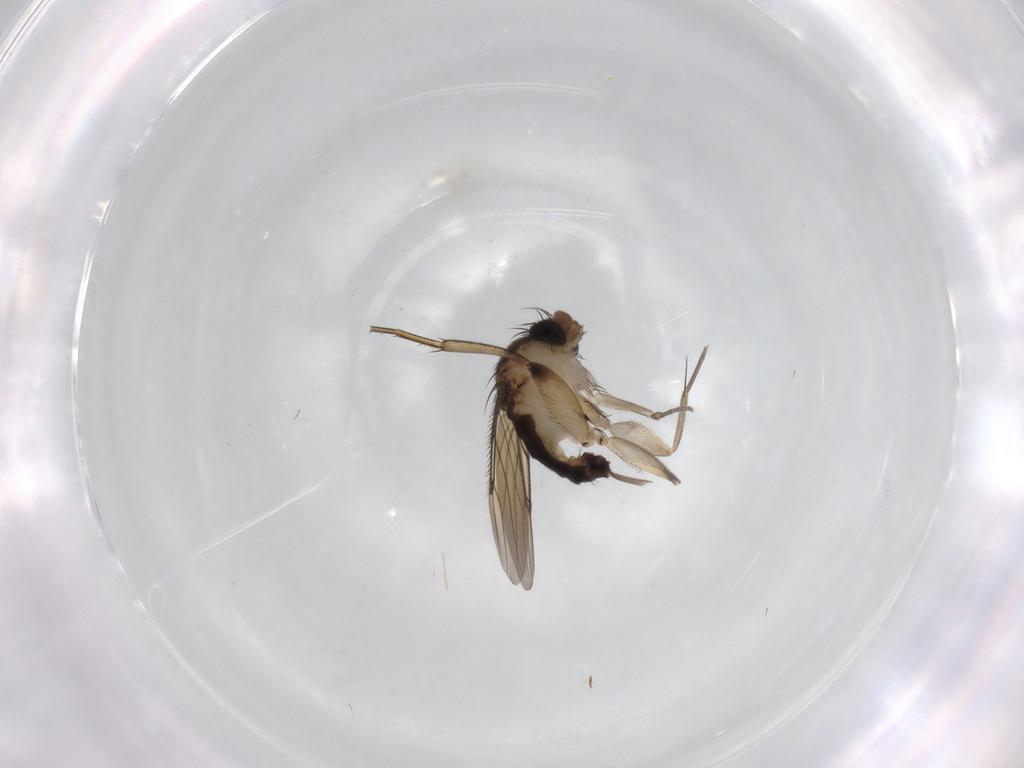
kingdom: Animalia
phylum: Arthropoda
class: Insecta
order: Diptera
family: Phoridae
